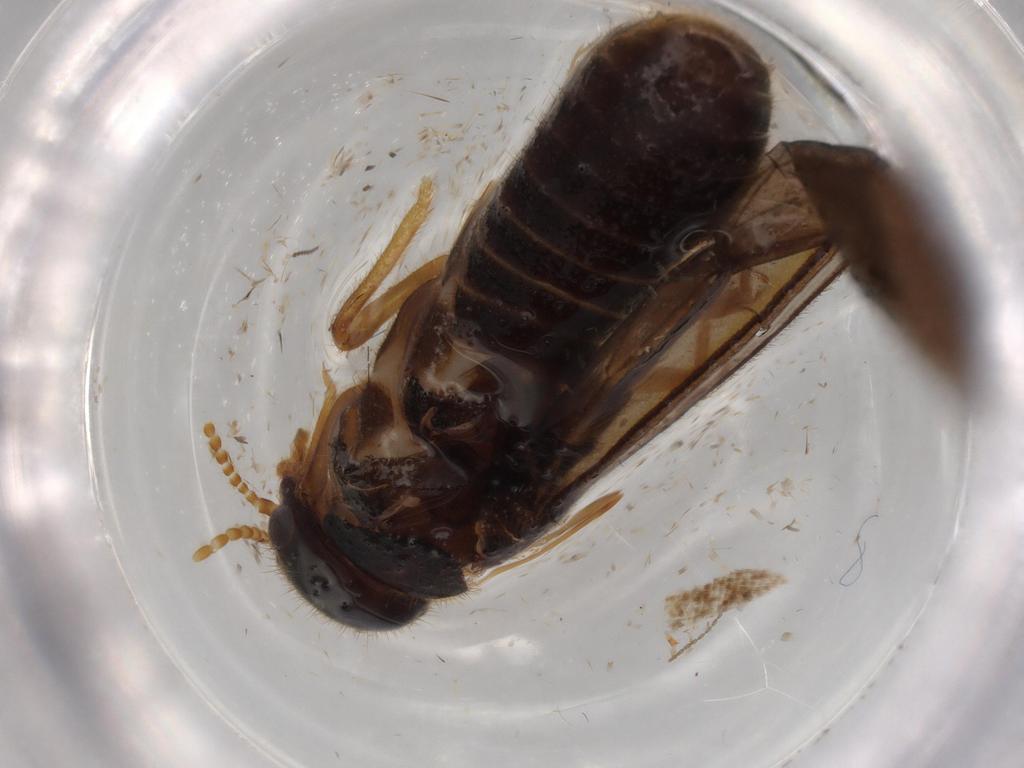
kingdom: Animalia
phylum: Arthropoda
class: Insecta
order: Blattodea
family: Termitidae
